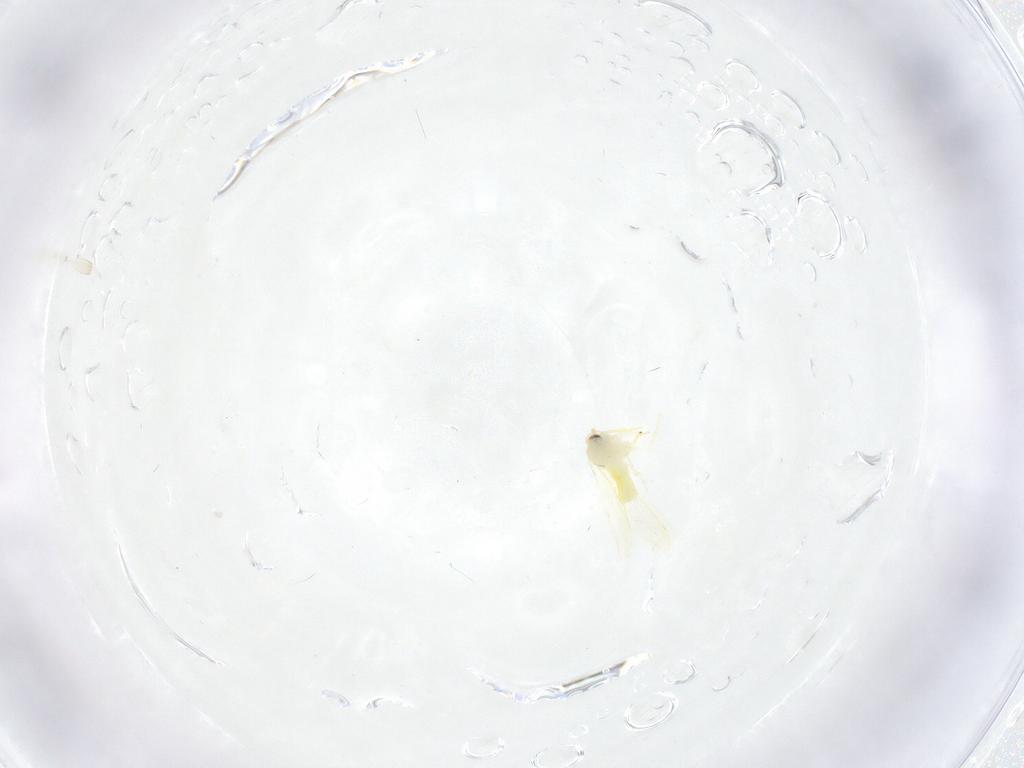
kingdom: Animalia
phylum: Arthropoda
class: Insecta
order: Hemiptera
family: Aleyrodidae
